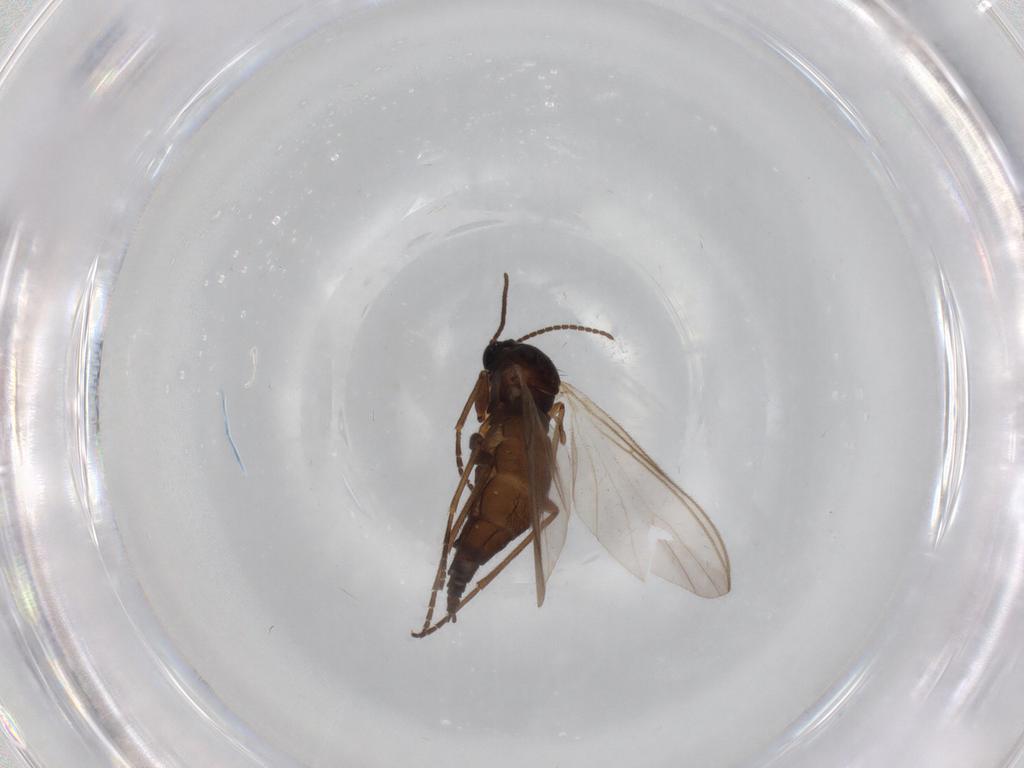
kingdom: Animalia
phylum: Arthropoda
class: Insecta
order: Diptera
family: Sciaridae
